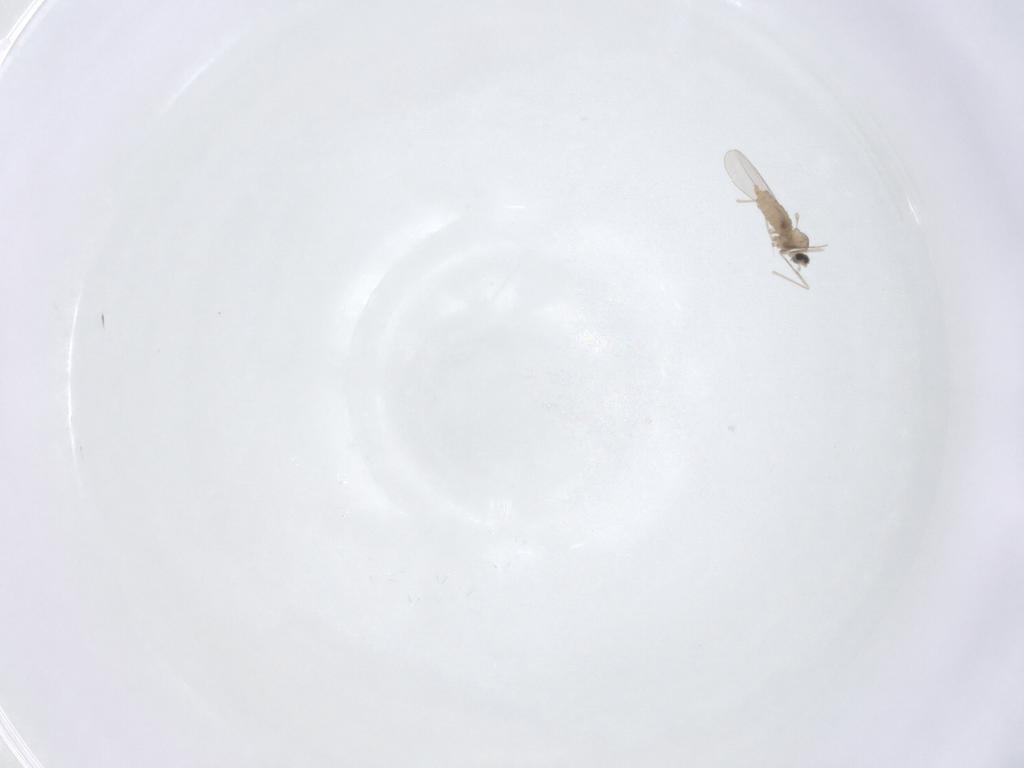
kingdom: Animalia
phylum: Arthropoda
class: Insecta
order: Diptera
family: Cecidomyiidae
